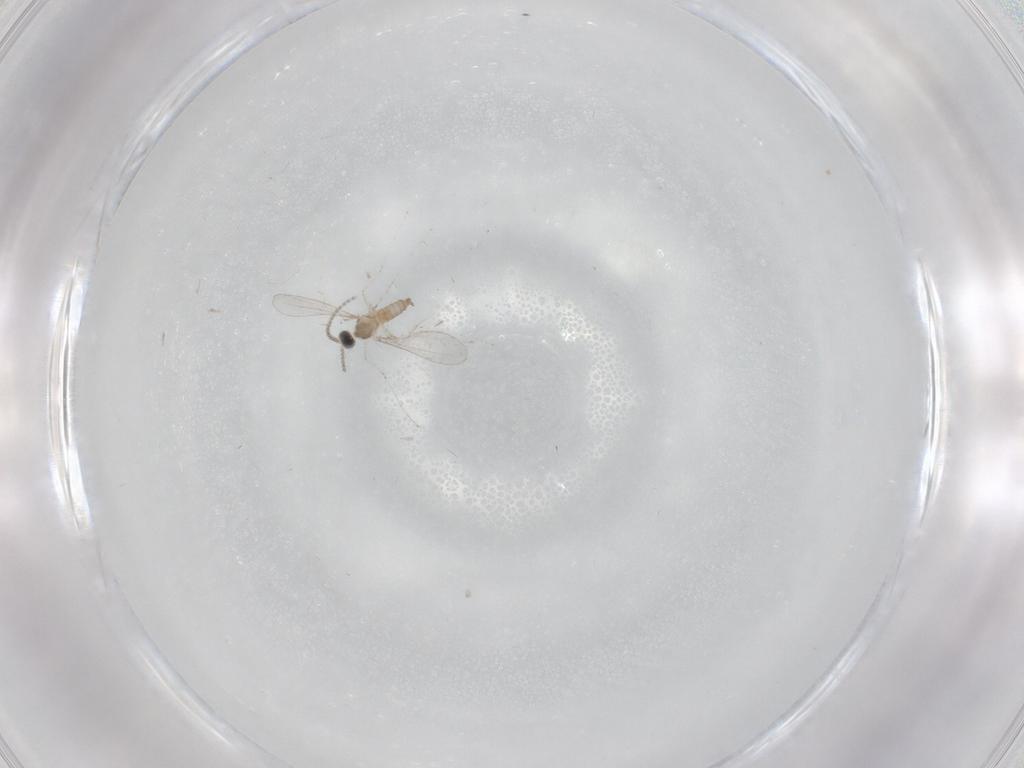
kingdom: Animalia
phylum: Arthropoda
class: Insecta
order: Diptera
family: Cecidomyiidae
